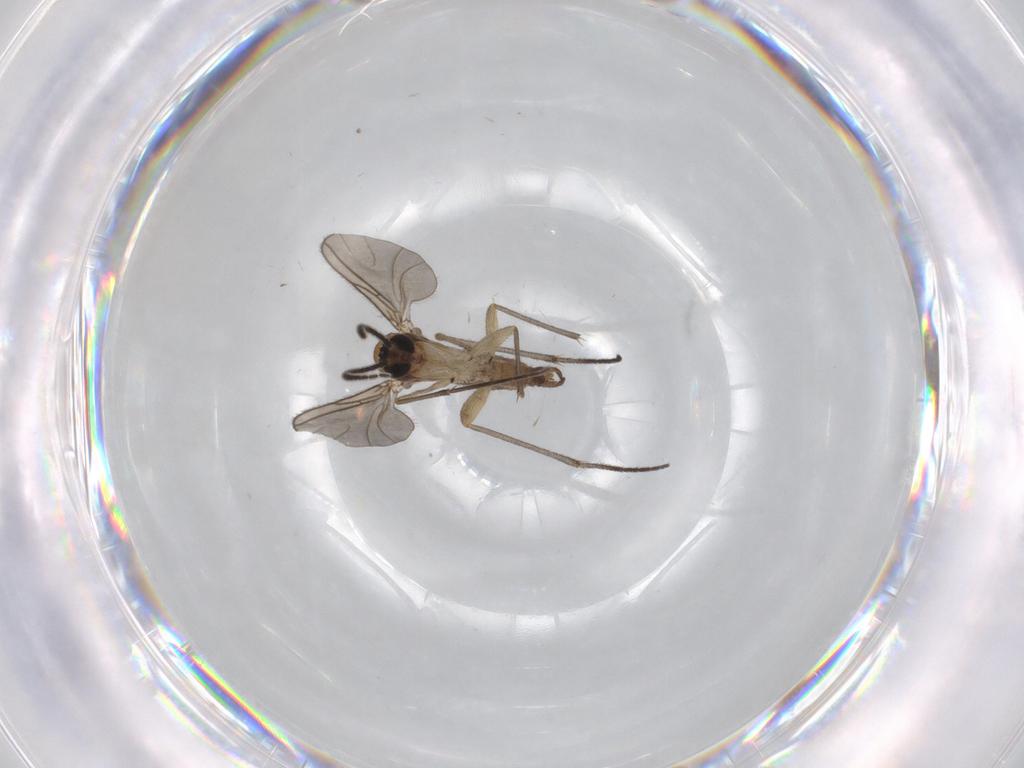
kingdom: Animalia
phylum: Arthropoda
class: Insecta
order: Diptera
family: Sciaridae
